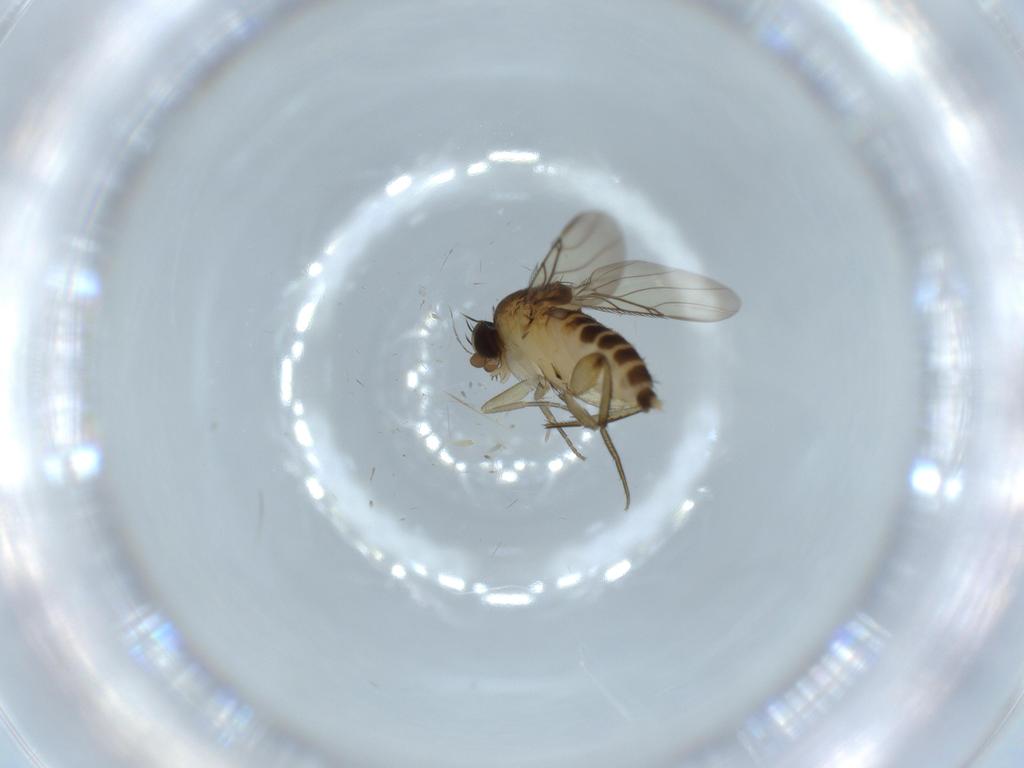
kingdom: Animalia
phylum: Arthropoda
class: Insecta
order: Diptera
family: Phoridae
